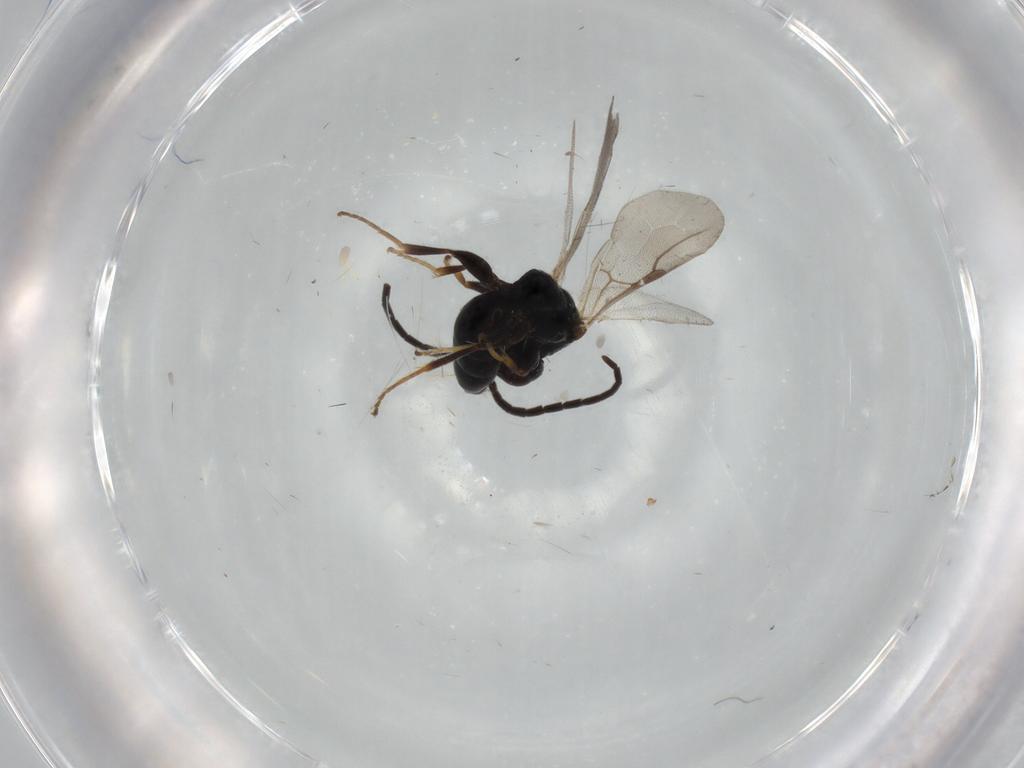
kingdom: Animalia
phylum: Arthropoda
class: Insecta
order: Hymenoptera
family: Bethylidae
